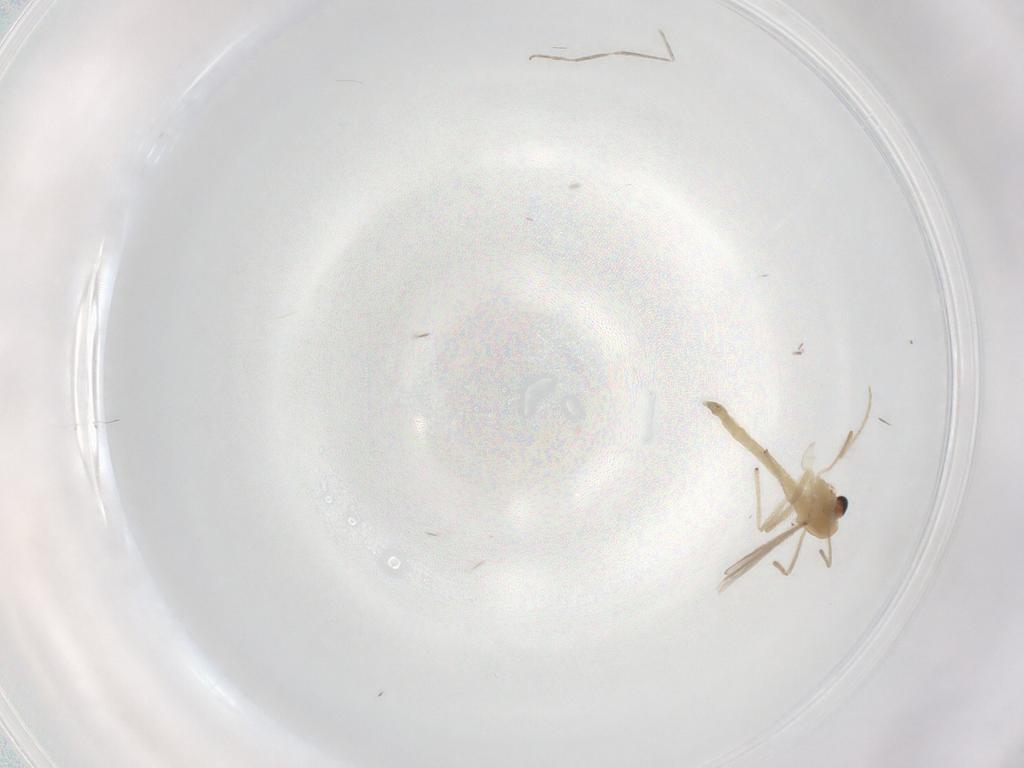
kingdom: Animalia
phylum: Arthropoda
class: Insecta
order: Diptera
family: Chironomidae
